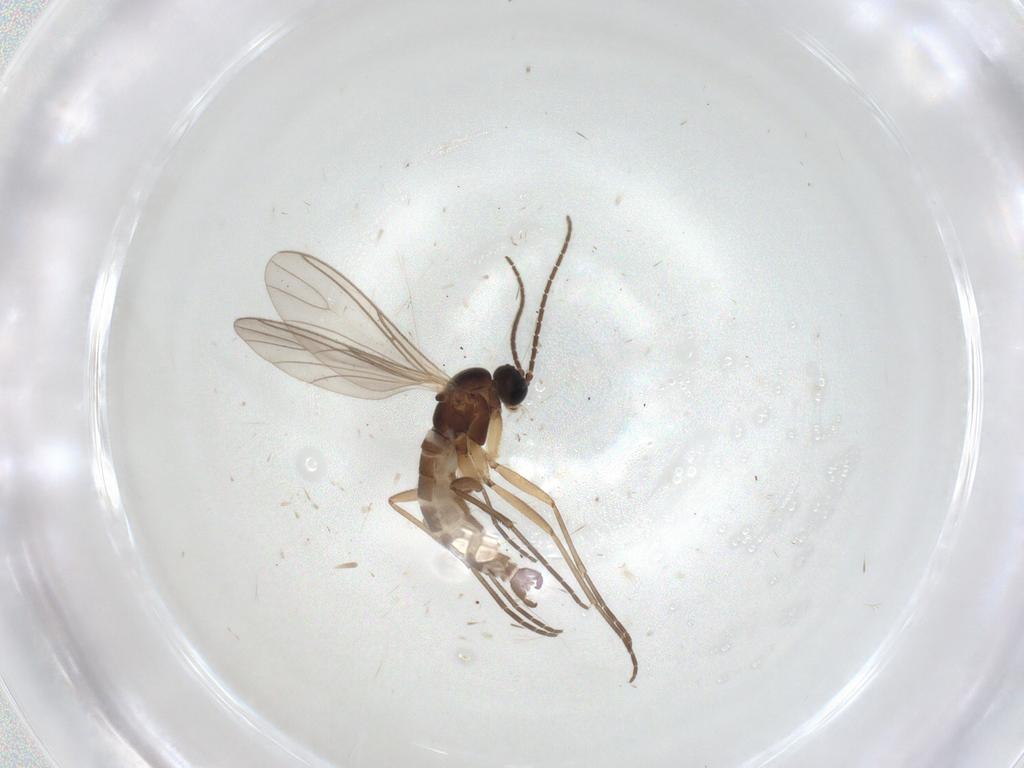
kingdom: Animalia
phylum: Arthropoda
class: Insecta
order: Diptera
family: Sciaridae
